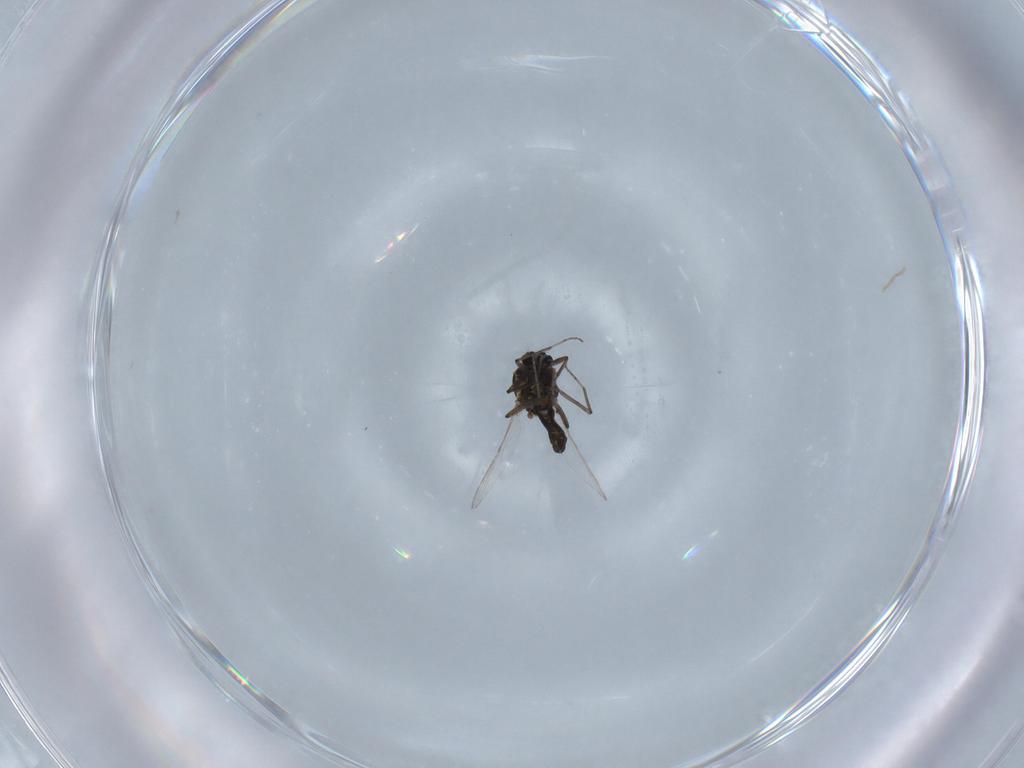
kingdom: Animalia
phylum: Arthropoda
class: Insecta
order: Diptera
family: Ceratopogonidae
